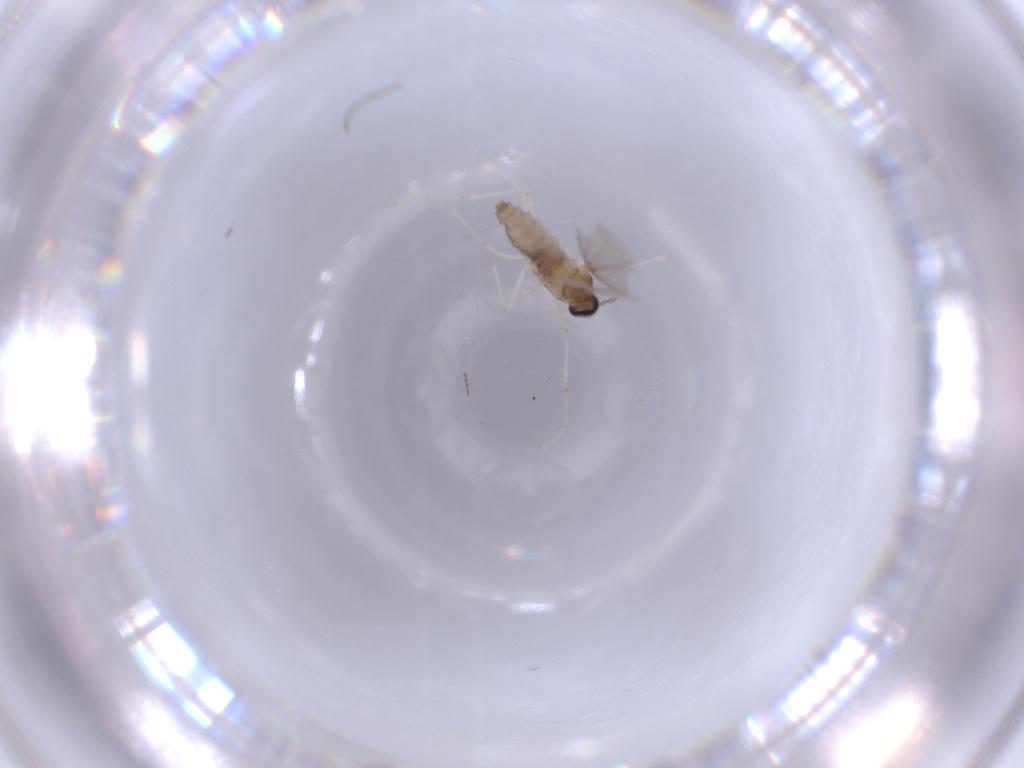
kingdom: Animalia
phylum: Arthropoda
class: Insecta
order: Diptera
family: Cecidomyiidae
